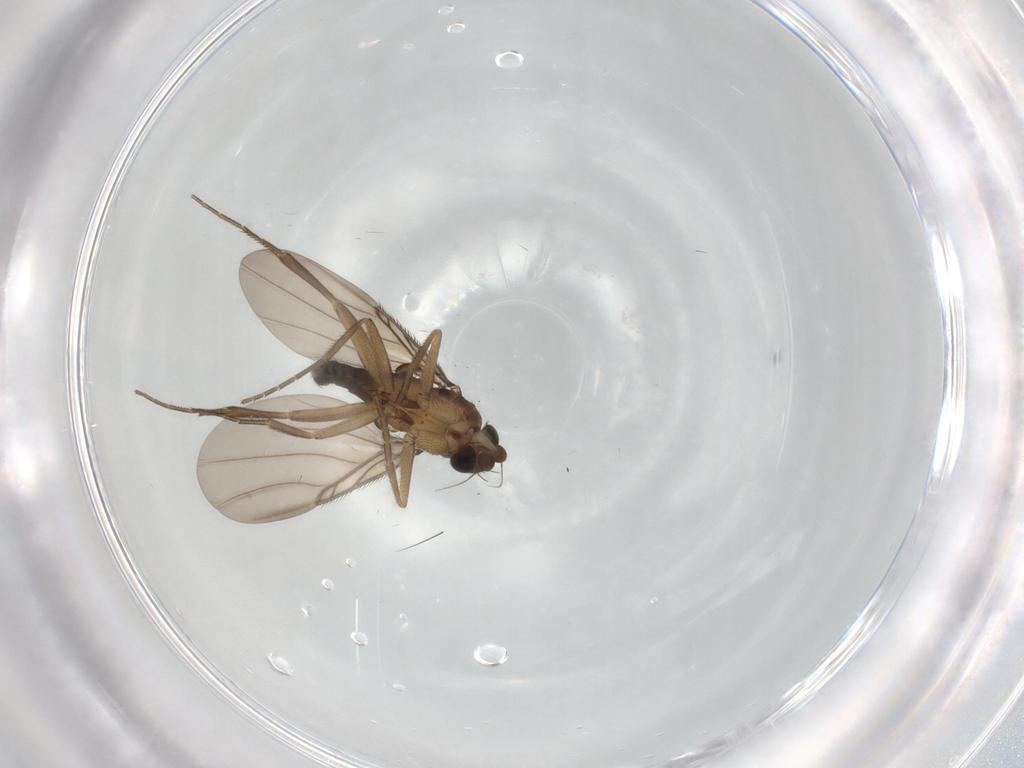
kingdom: Animalia
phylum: Arthropoda
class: Insecta
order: Diptera
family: Phoridae
